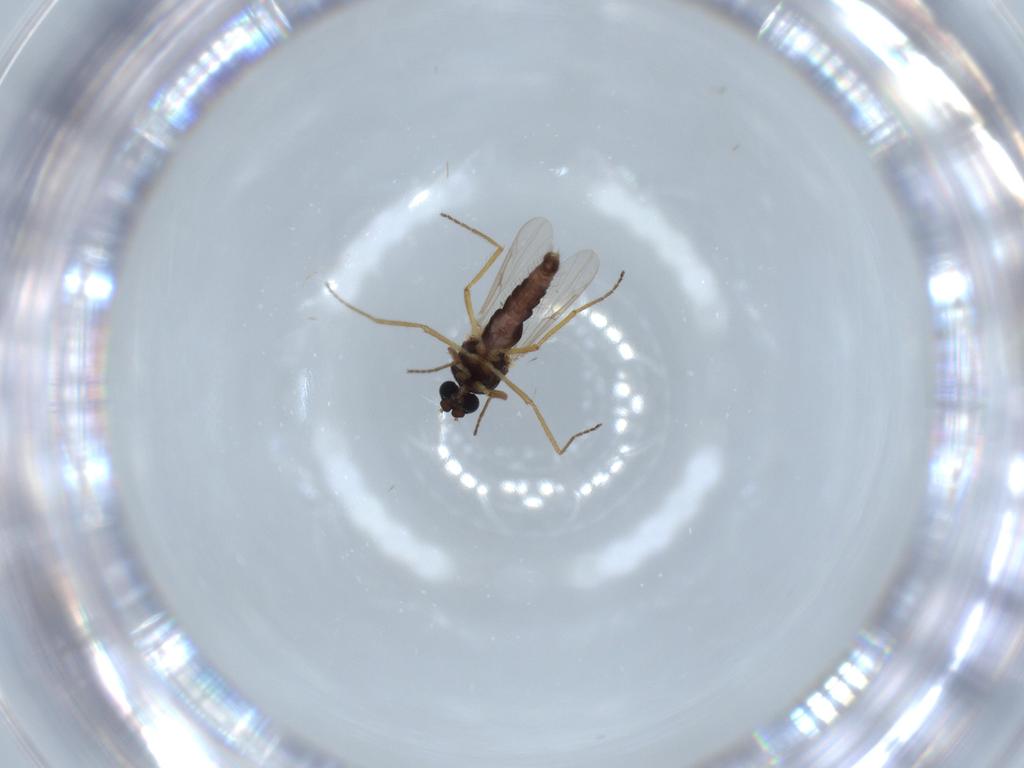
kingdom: Animalia
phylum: Arthropoda
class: Insecta
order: Diptera
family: Ceratopogonidae
